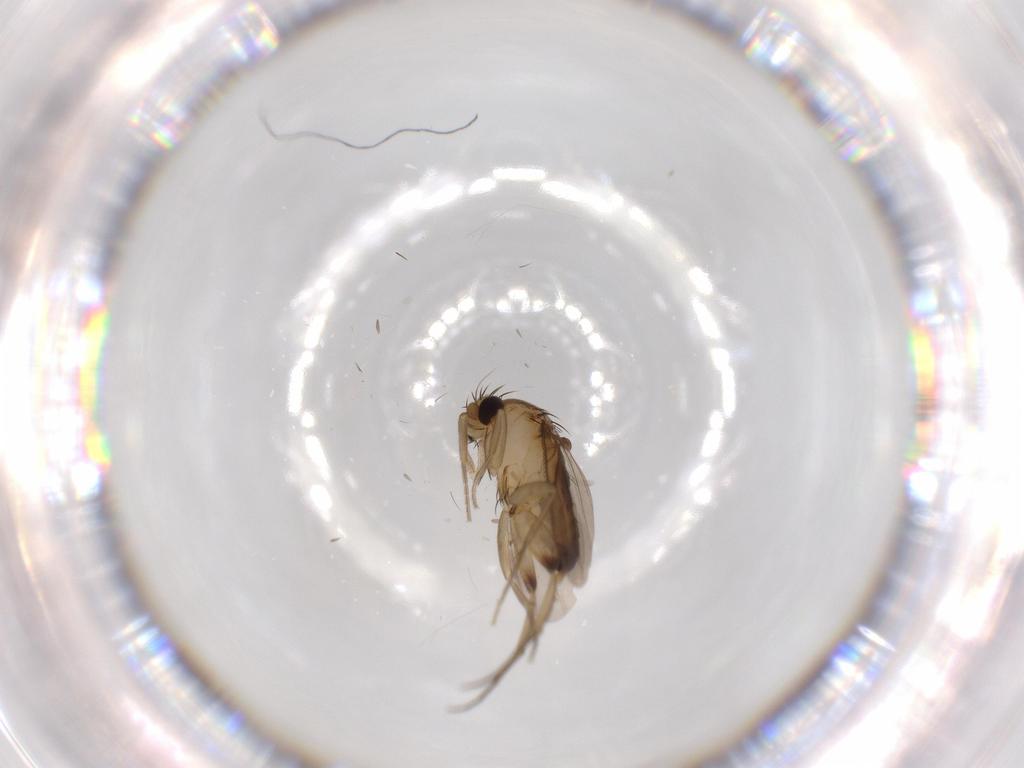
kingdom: Animalia
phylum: Arthropoda
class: Insecta
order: Diptera
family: Phoridae
